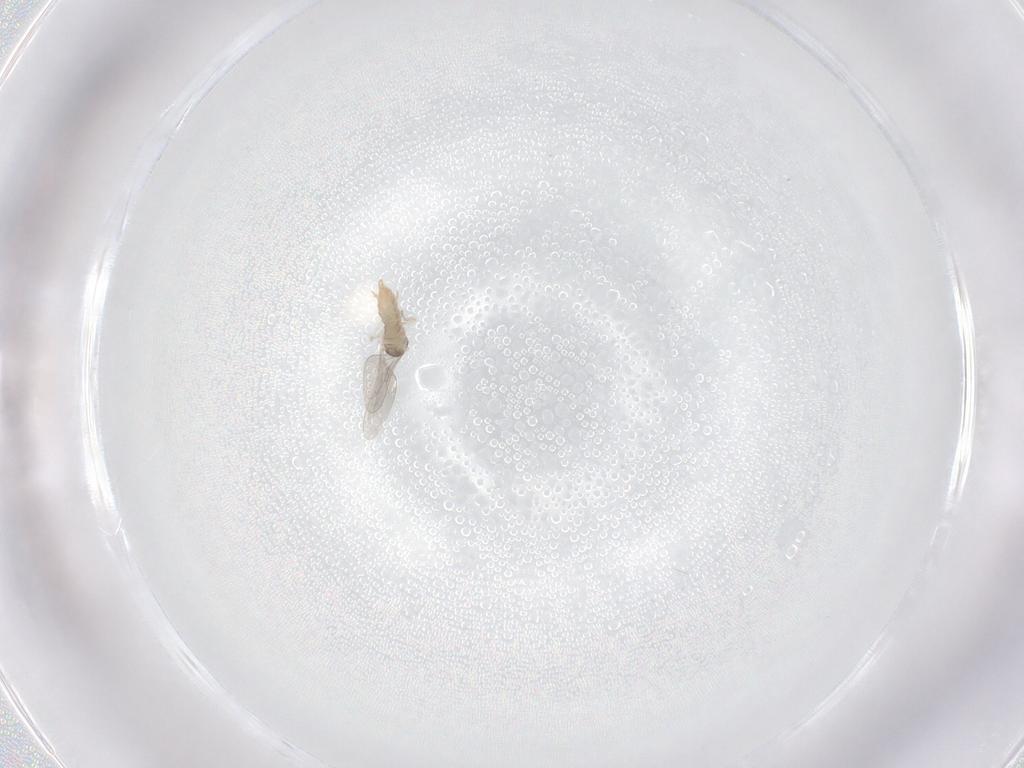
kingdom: Animalia
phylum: Arthropoda
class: Insecta
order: Diptera
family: Cecidomyiidae
